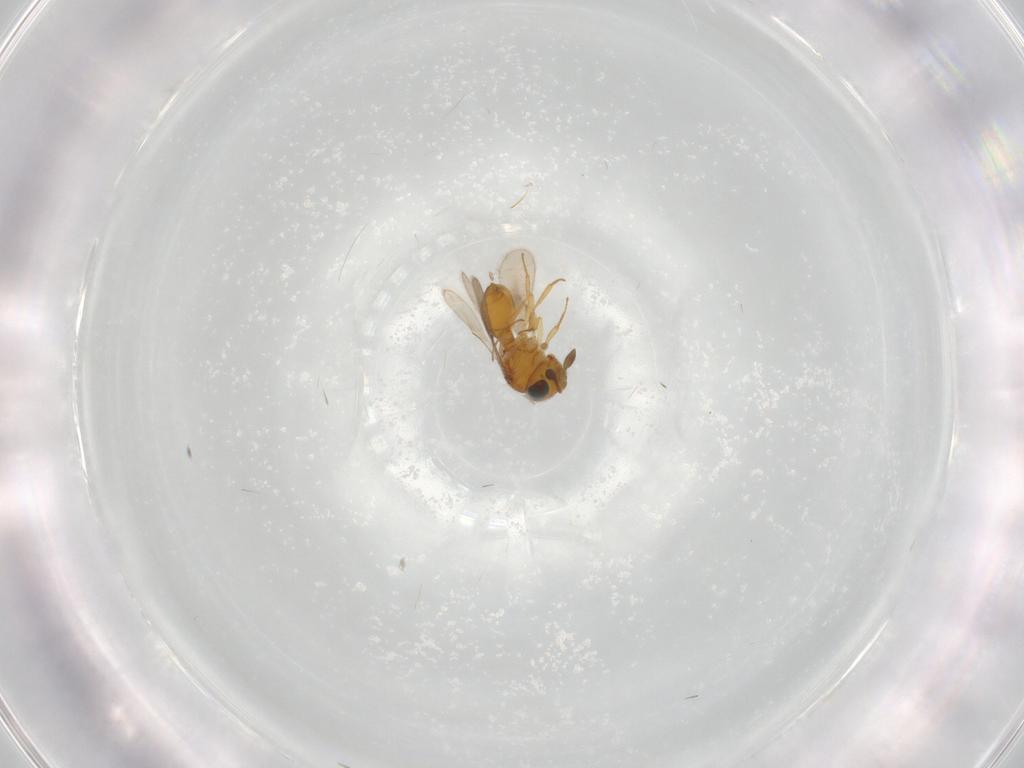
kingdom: Animalia
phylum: Arthropoda
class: Insecta
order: Hymenoptera
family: Scelionidae
